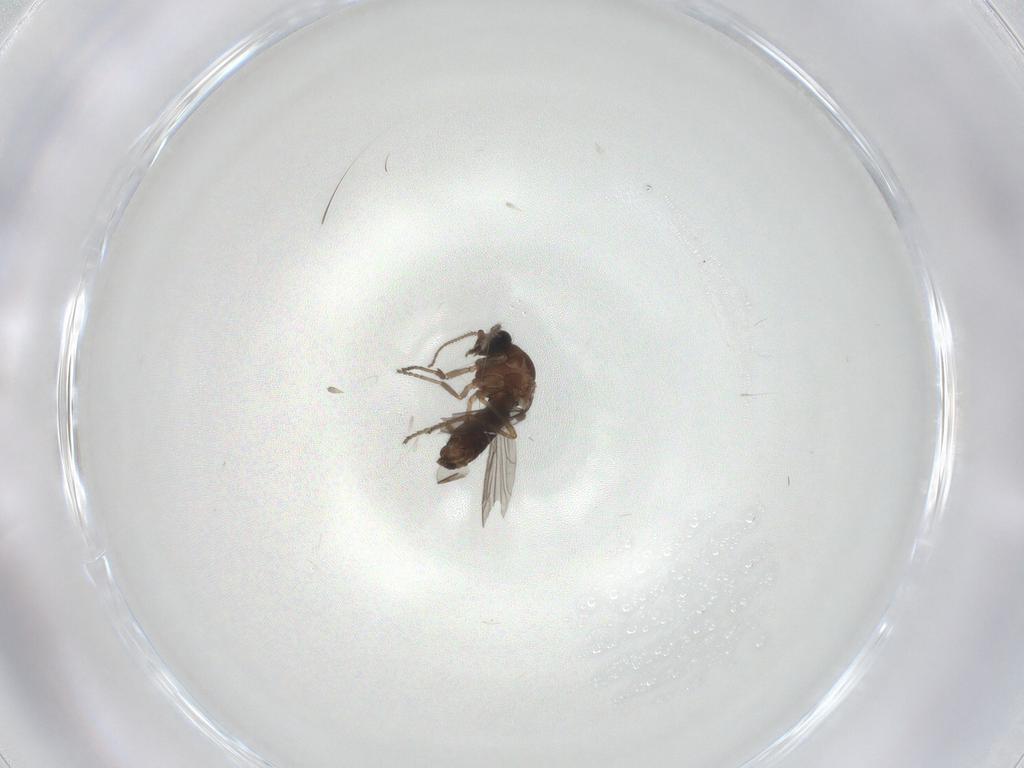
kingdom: Animalia
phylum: Arthropoda
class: Insecta
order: Diptera
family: Ceratopogonidae
